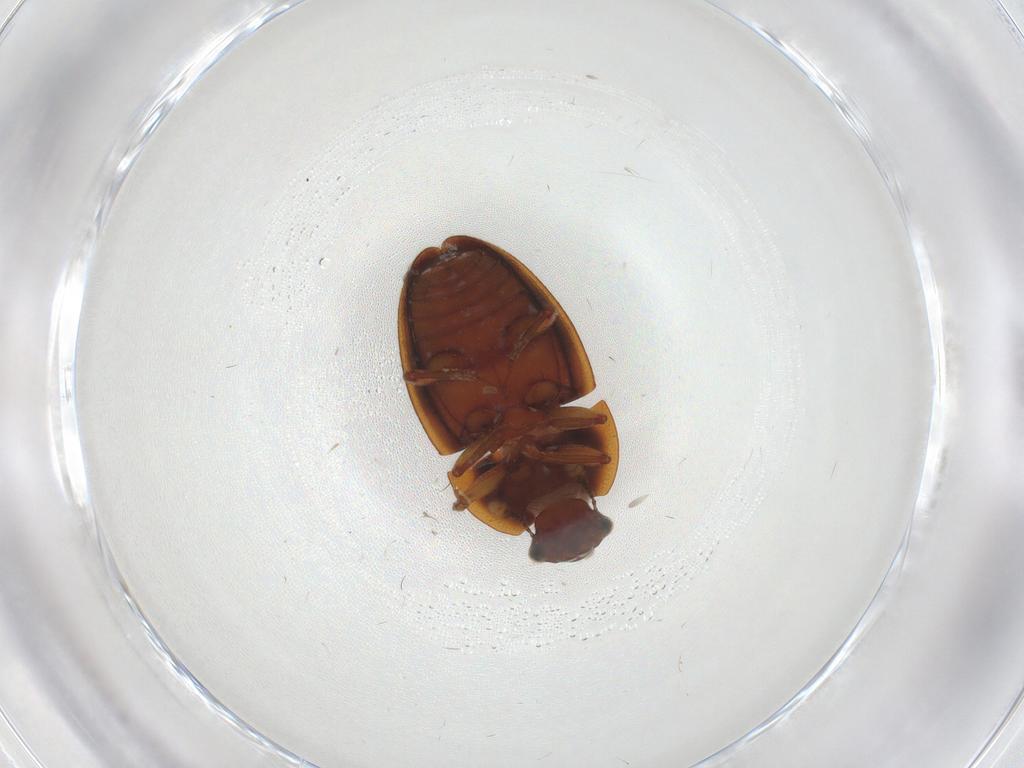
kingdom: Animalia
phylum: Arthropoda
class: Insecta
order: Coleoptera
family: Nitidulidae
